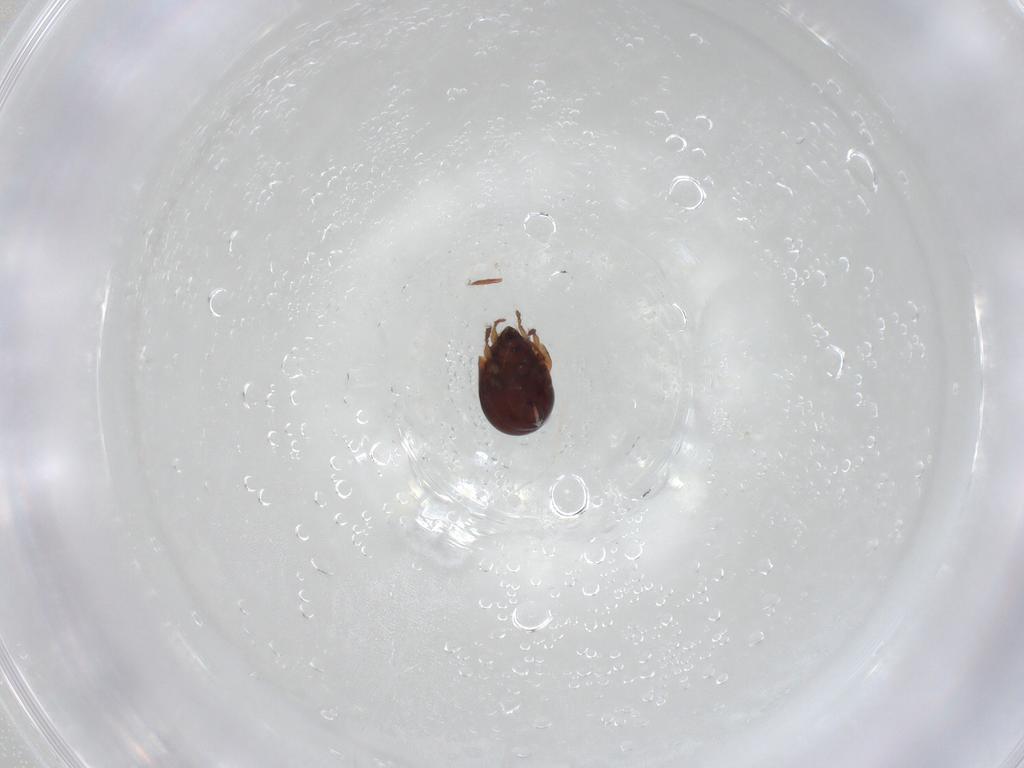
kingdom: Animalia
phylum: Arthropoda
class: Arachnida
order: Sarcoptiformes
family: Humerobatidae
